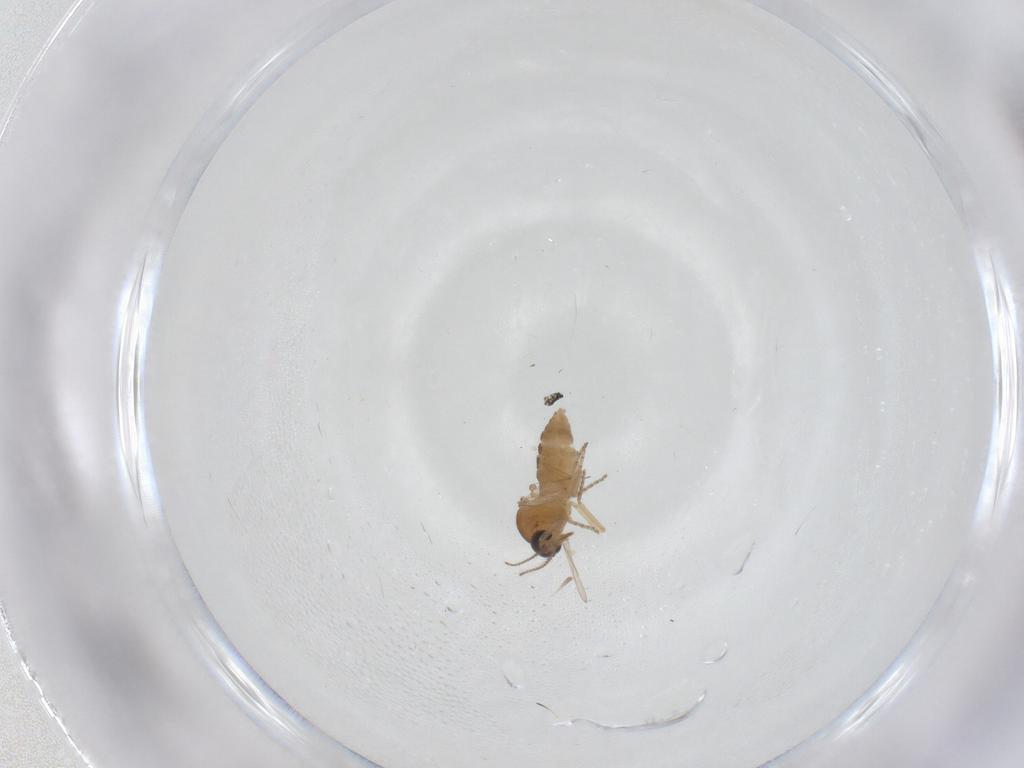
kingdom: Animalia
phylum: Arthropoda
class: Insecta
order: Diptera
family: Ceratopogonidae
